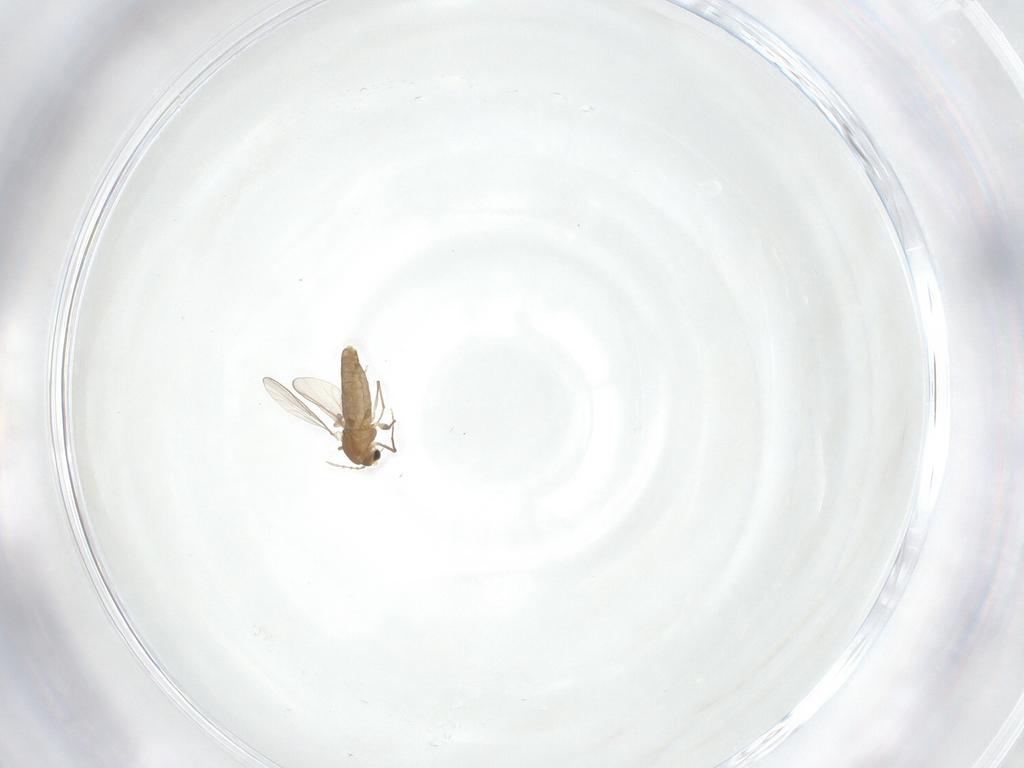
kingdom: Animalia
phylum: Arthropoda
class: Insecta
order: Diptera
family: Chironomidae
